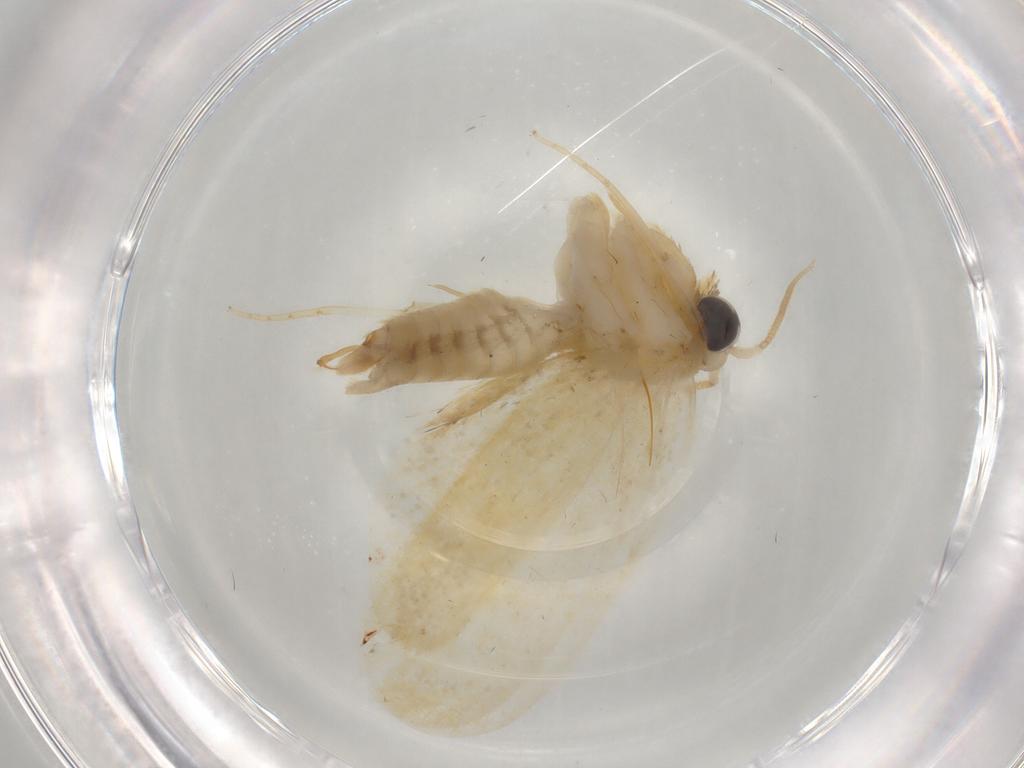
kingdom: Animalia
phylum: Arthropoda
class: Insecta
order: Lepidoptera
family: Psychidae
